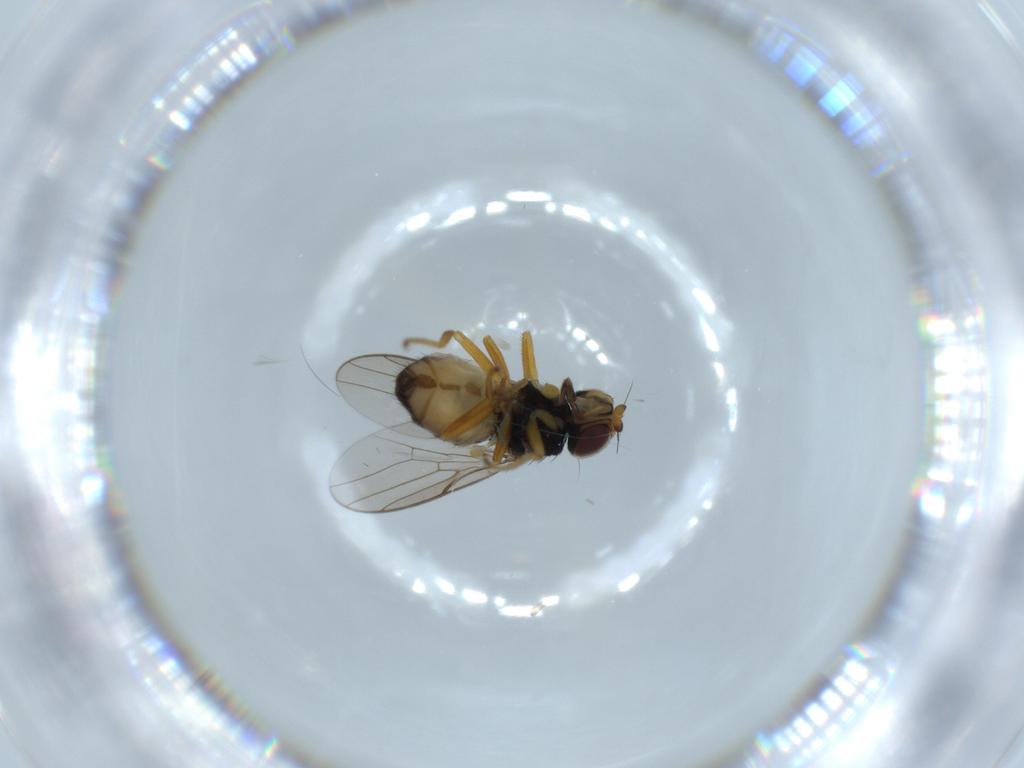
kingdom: Animalia
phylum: Arthropoda
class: Insecta
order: Diptera
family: Chloropidae
